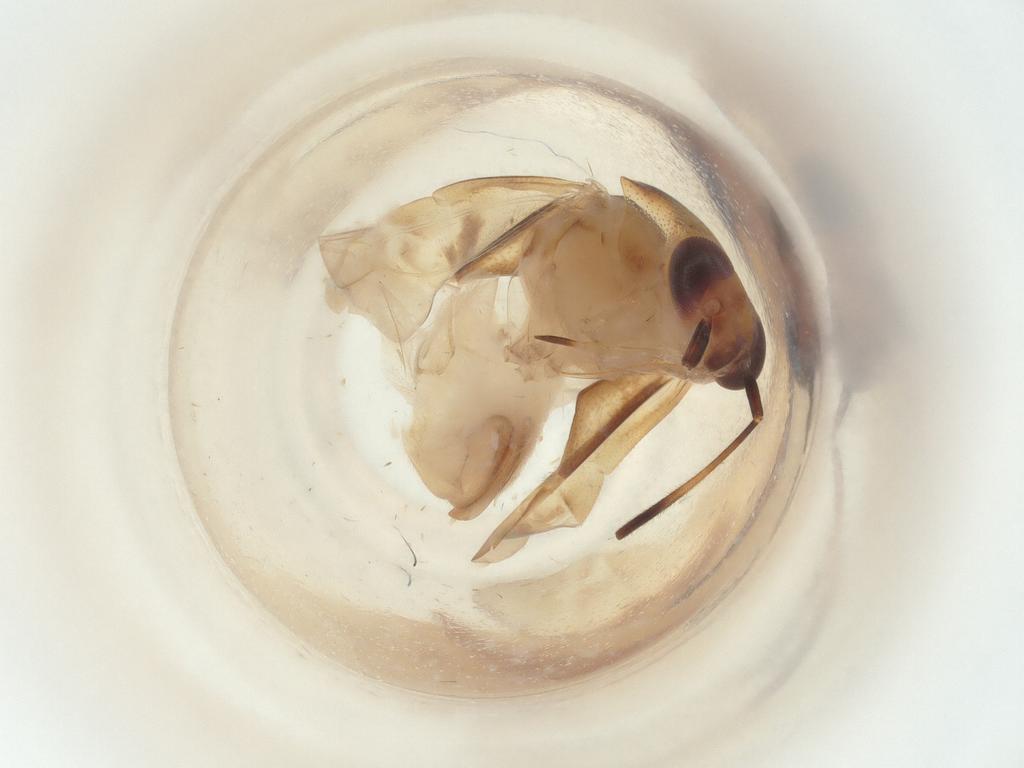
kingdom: Animalia
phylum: Arthropoda
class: Insecta
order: Hemiptera
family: Miridae
